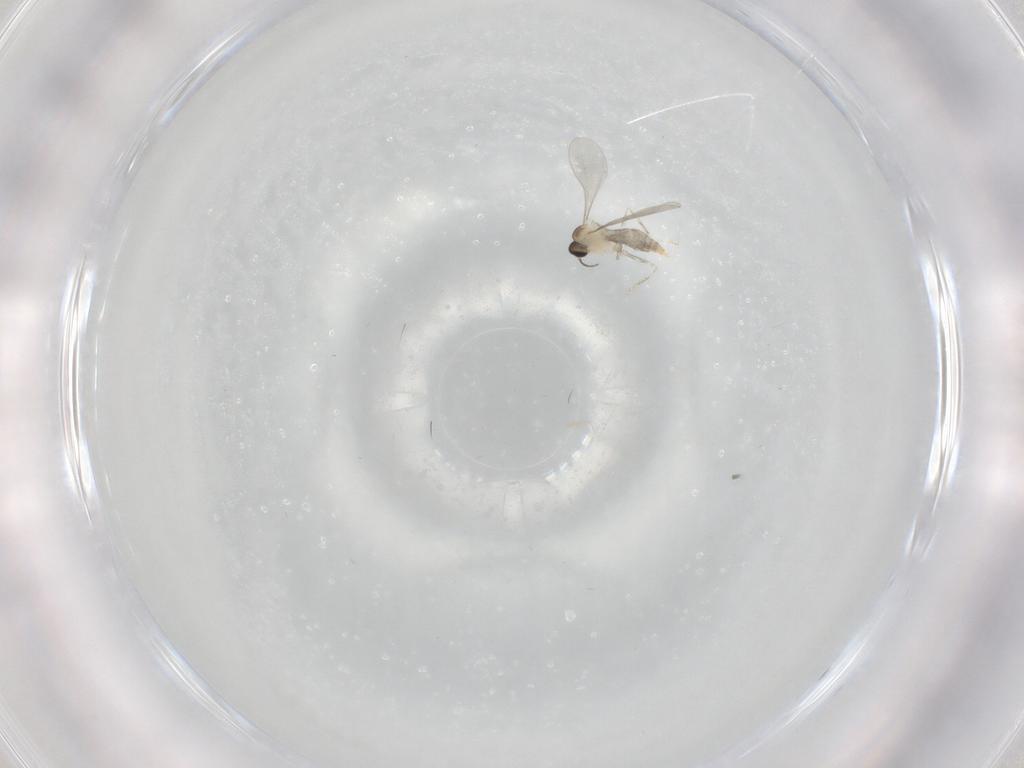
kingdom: Animalia
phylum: Arthropoda
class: Insecta
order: Diptera
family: Cecidomyiidae
